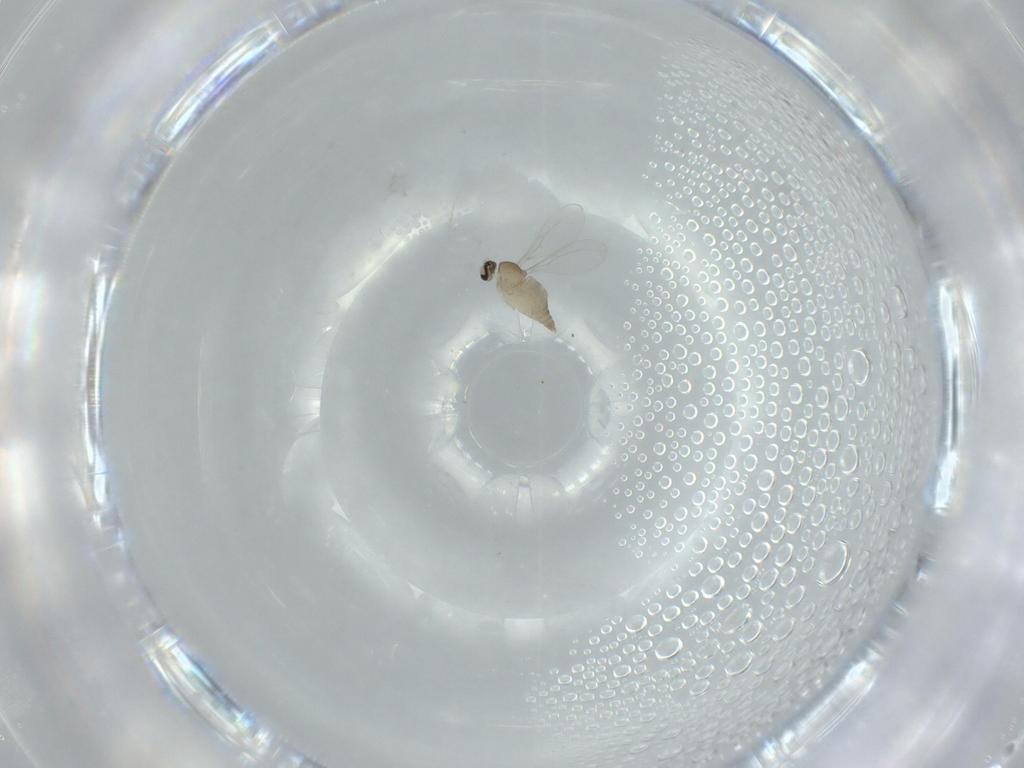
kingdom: Animalia
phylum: Arthropoda
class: Insecta
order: Diptera
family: Cecidomyiidae
